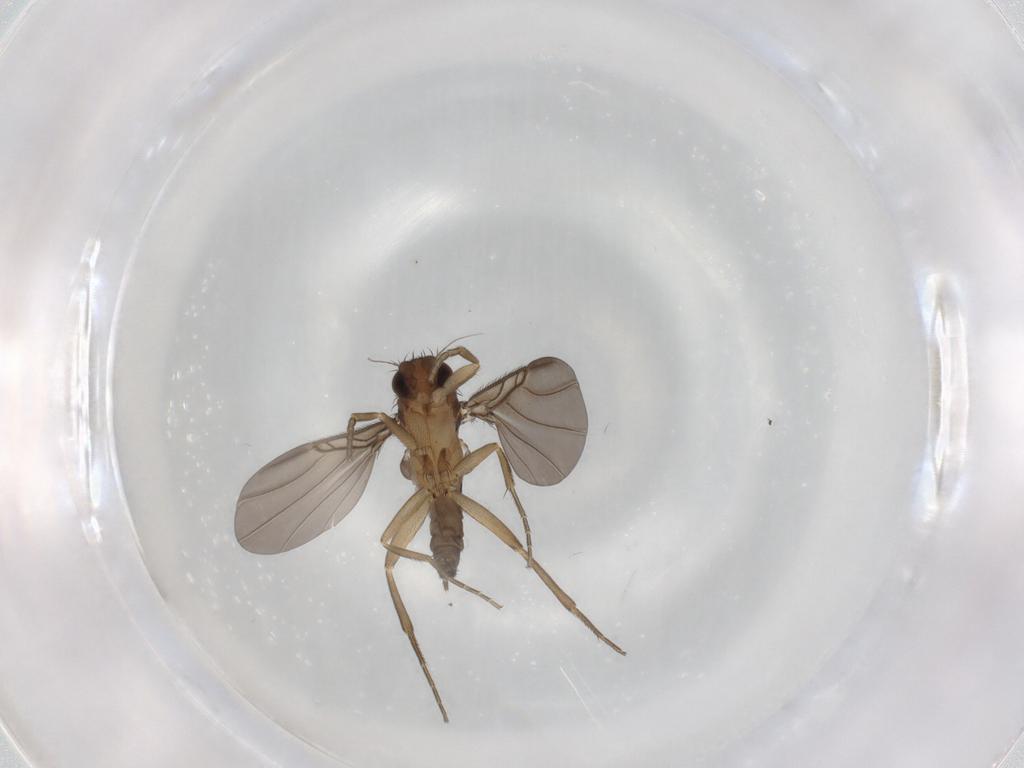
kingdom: Animalia
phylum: Arthropoda
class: Insecta
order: Diptera
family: Phoridae
